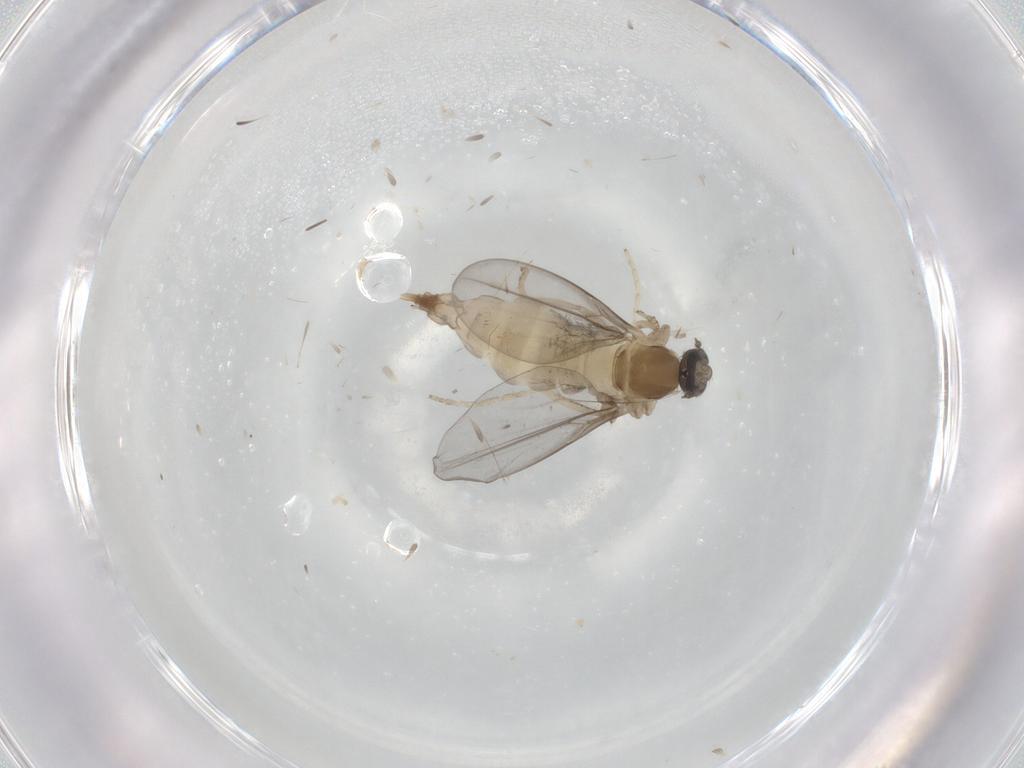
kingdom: Animalia
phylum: Arthropoda
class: Insecta
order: Diptera
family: Cecidomyiidae
